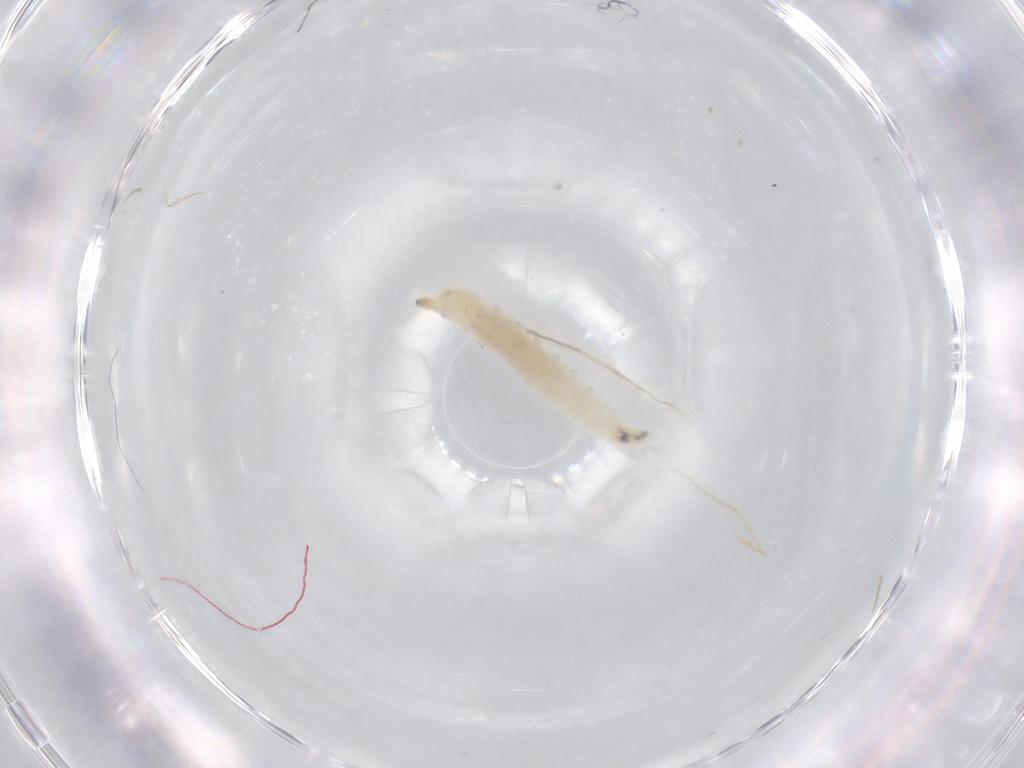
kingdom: Animalia
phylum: Arthropoda
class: Insecta
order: Diptera
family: Drosophilidae
